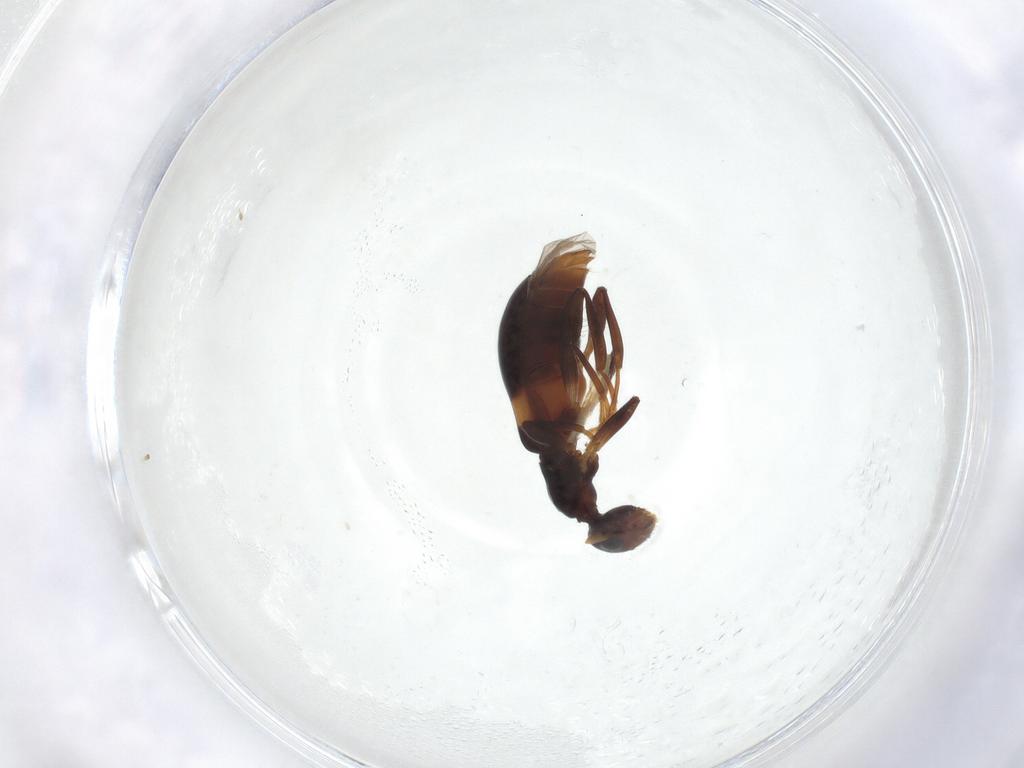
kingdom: Animalia
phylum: Arthropoda
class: Insecta
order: Coleoptera
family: Anthicidae
